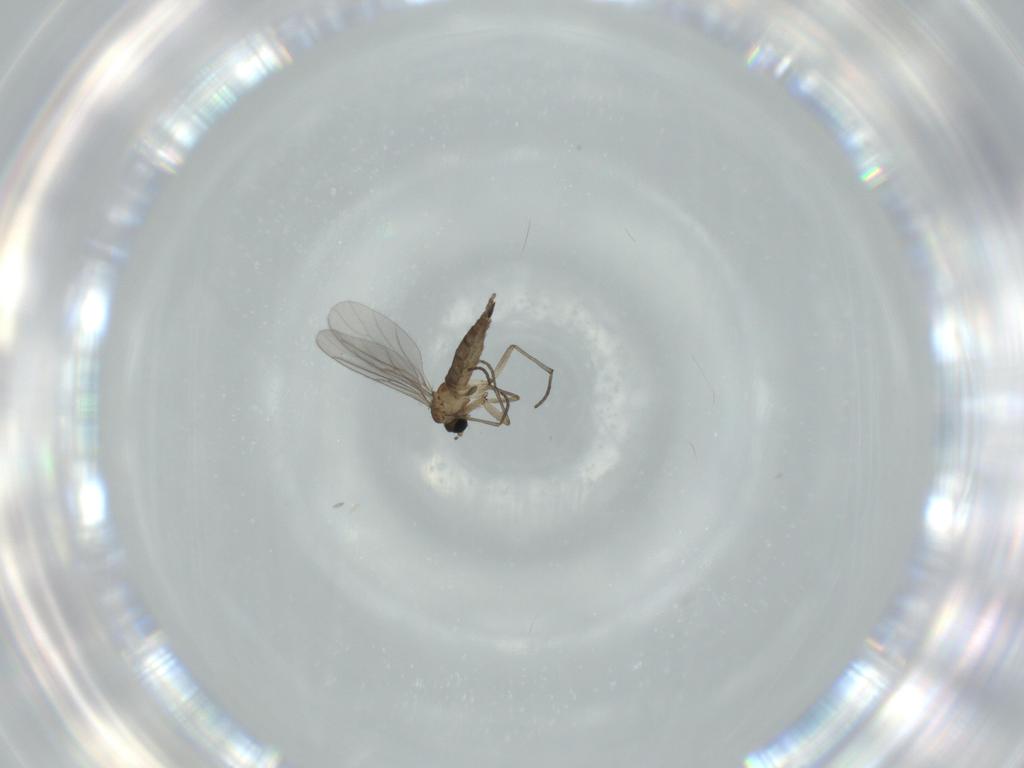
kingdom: Animalia
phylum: Arthropoda
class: Insecta
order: Diptera
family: Sciaridae
